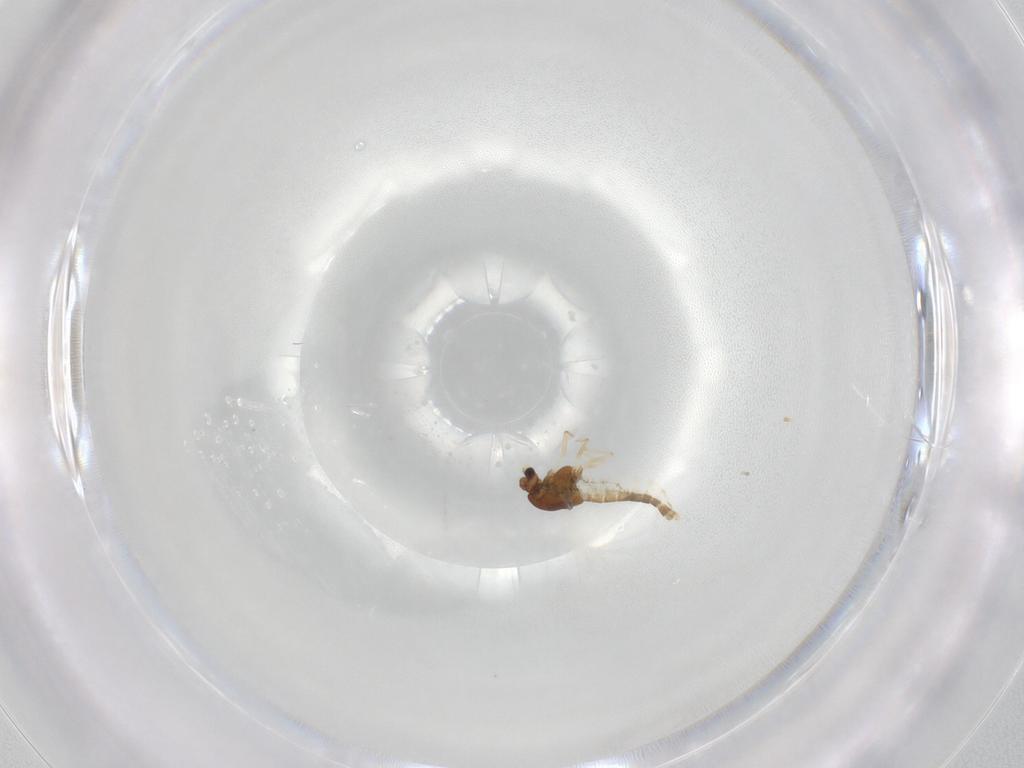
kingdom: Animalia
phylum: Arthropoda
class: Insecta
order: Diptera
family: Chironomidae
